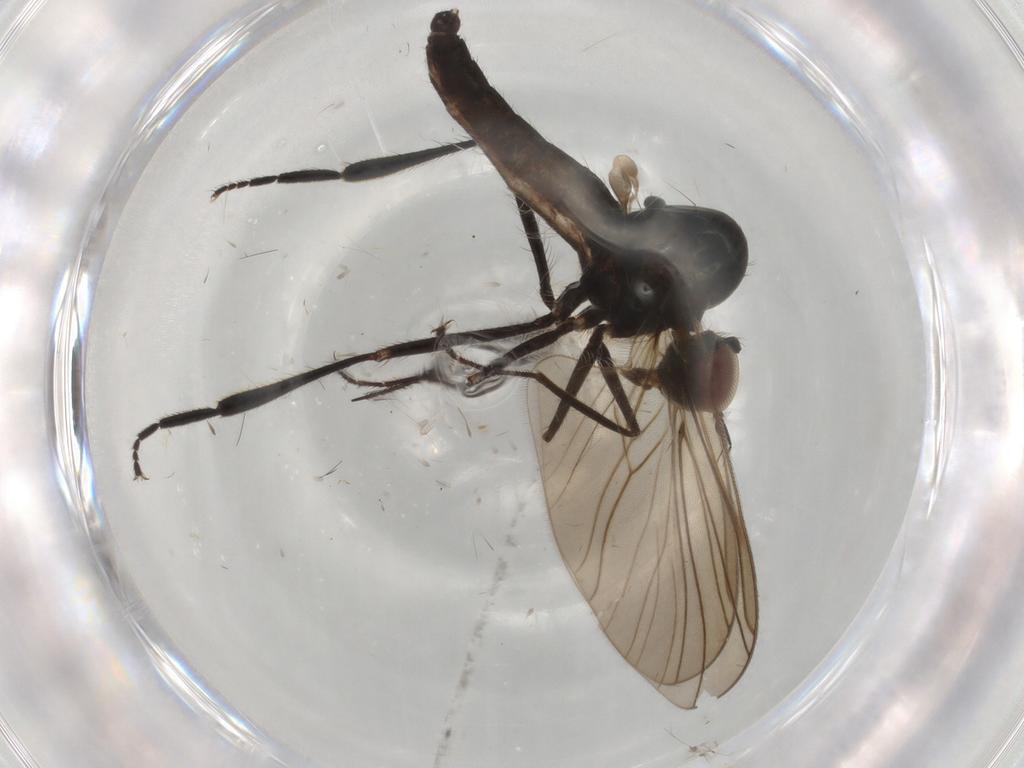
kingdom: Animalia
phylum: Arthropoda
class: Insecta
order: Diptera
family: Hybotidae
